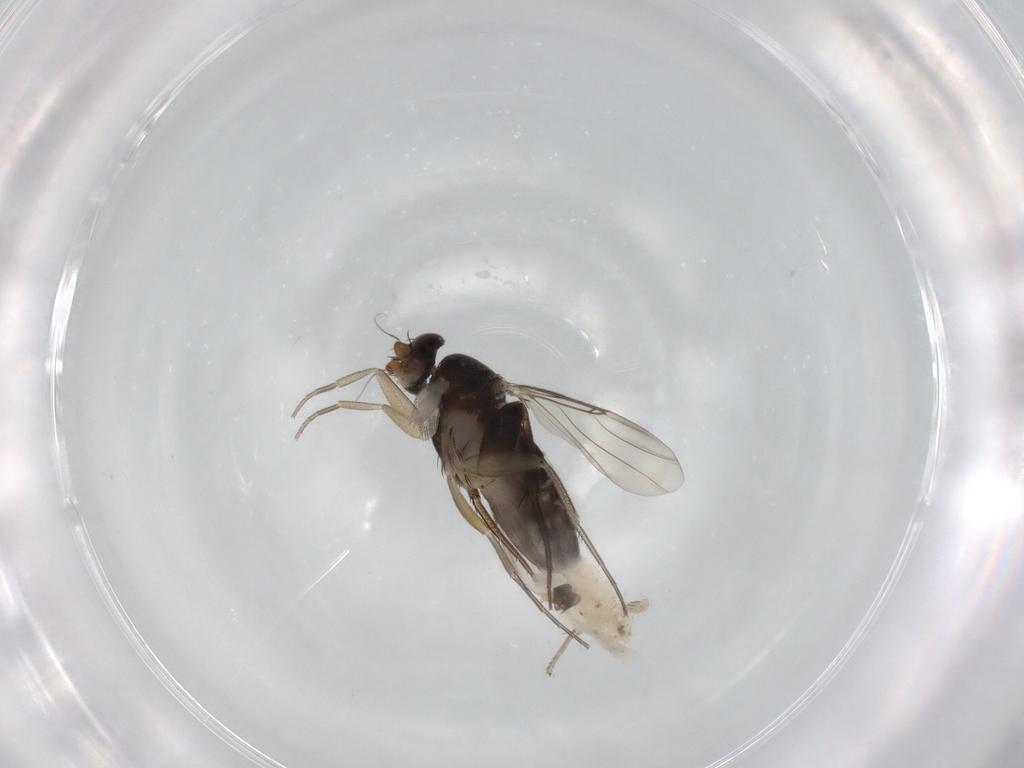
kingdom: Animalia
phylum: Arthropoda
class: Insecta
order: Diptera
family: Phoridae
